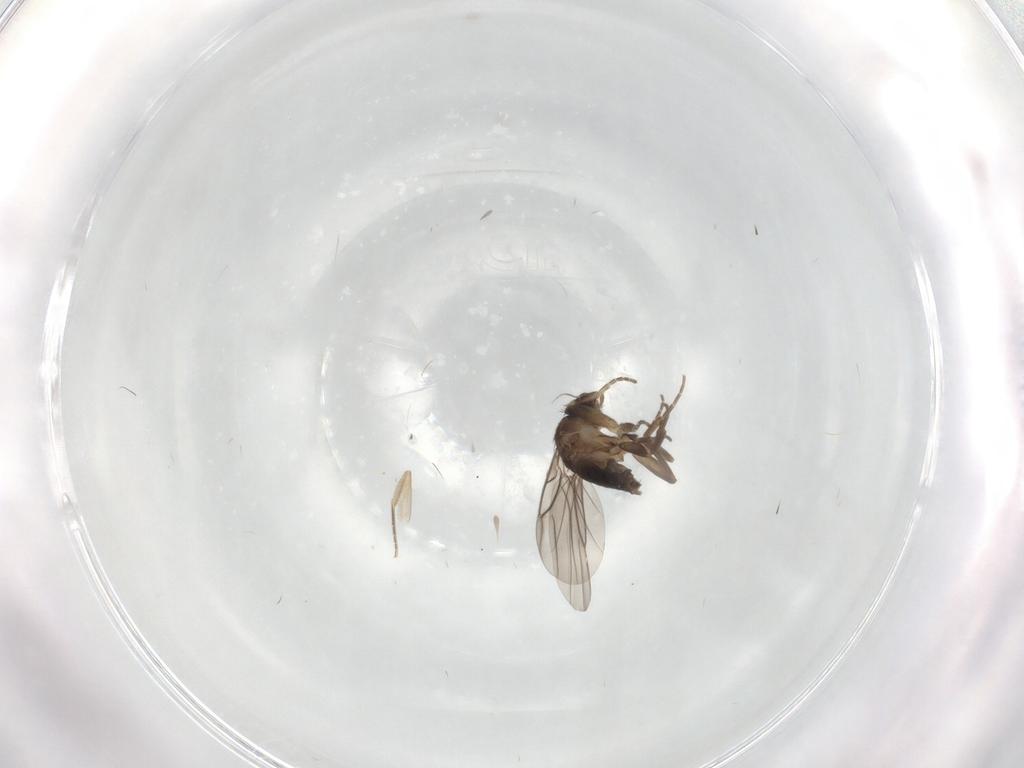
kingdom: Animalia
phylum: Arthropoda
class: Insecta
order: Diptera
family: Phoridae
